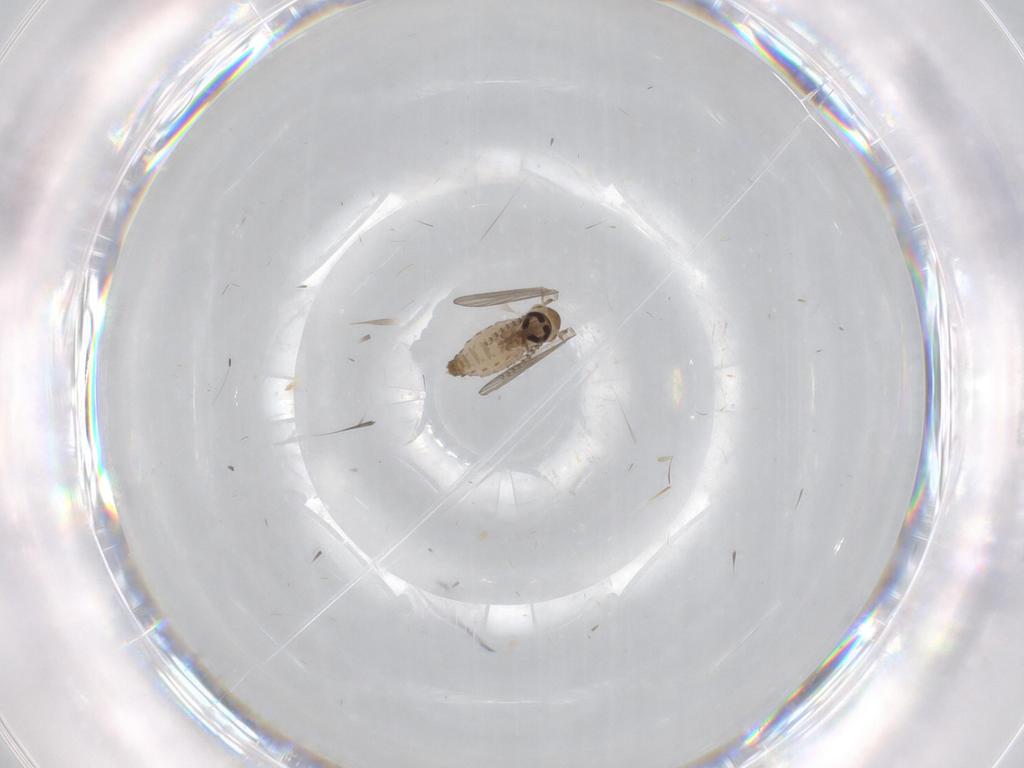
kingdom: Animalia
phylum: Arthropoda
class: Insecta
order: Diptera
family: Psychodidae
